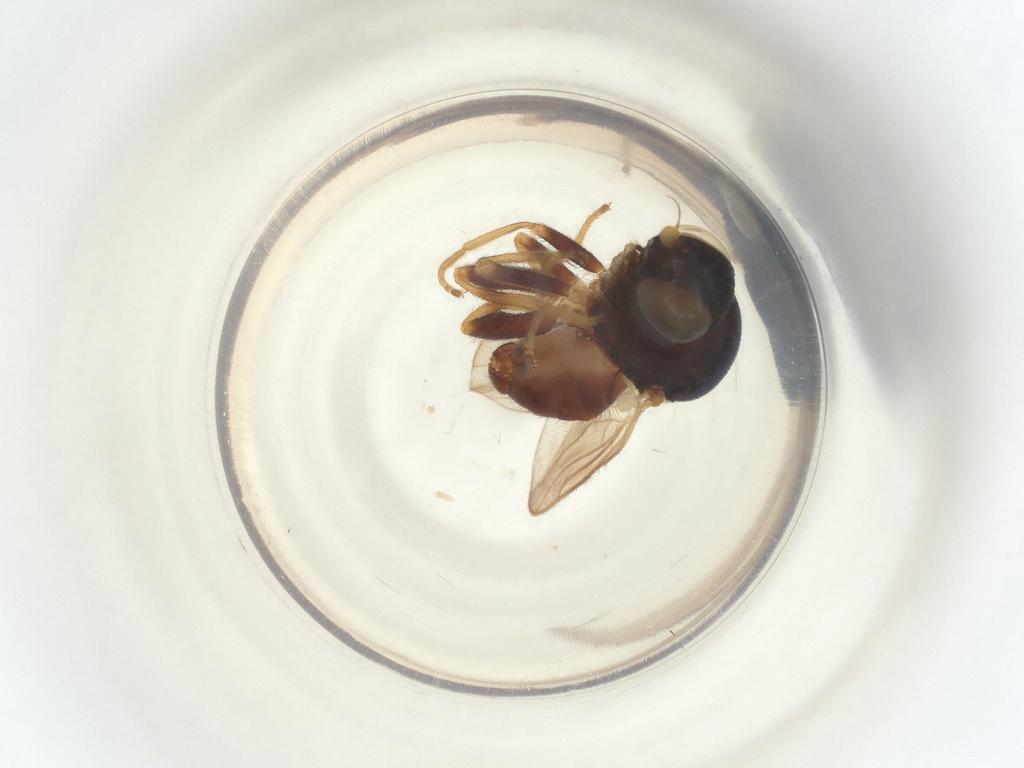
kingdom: Animalia
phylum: Arthropoda
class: Insecta
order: Diptera
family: Chloropidae
